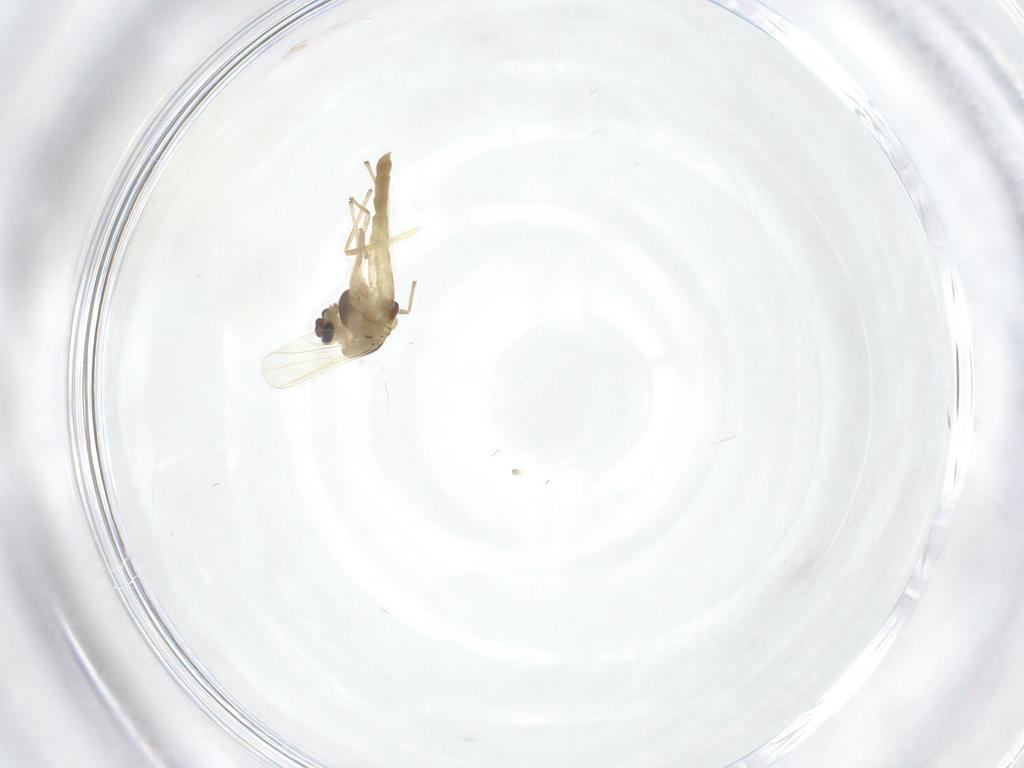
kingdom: Animalia
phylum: Arthropoda
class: Insecta
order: Diptera
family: Chironomidae
